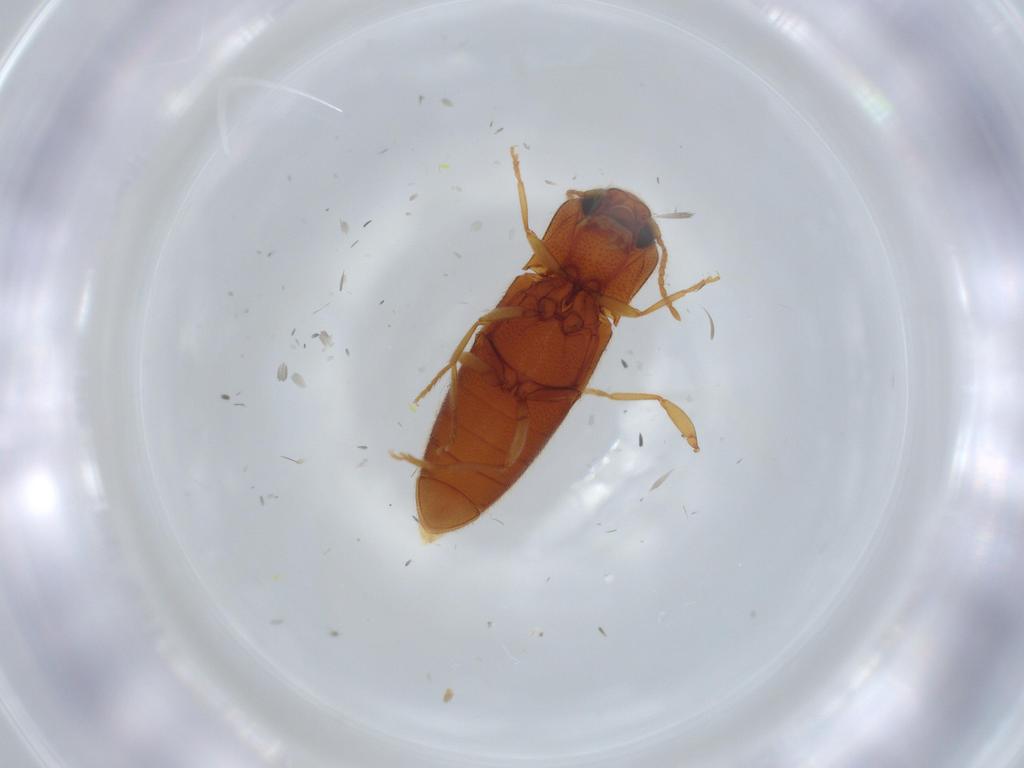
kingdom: Animalia
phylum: Arthropoda
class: Insecta
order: Coleoptera
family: Elateridae
